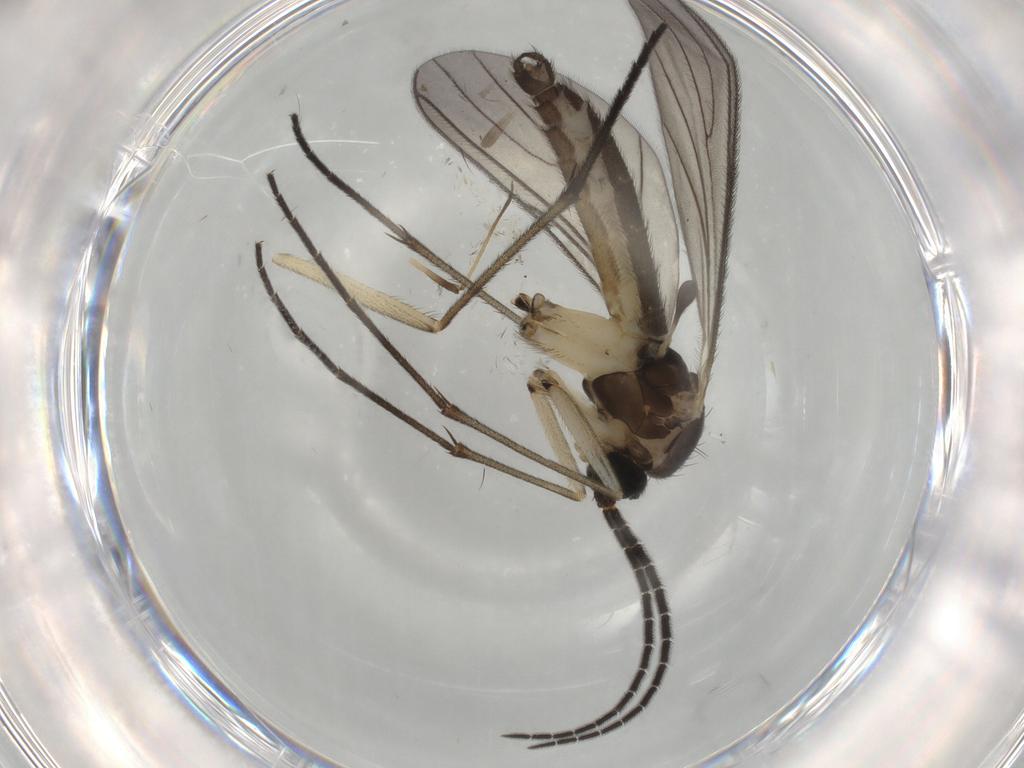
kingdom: Animalia
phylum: Arthropoda
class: Insecta
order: Diptera
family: Sciaridae
